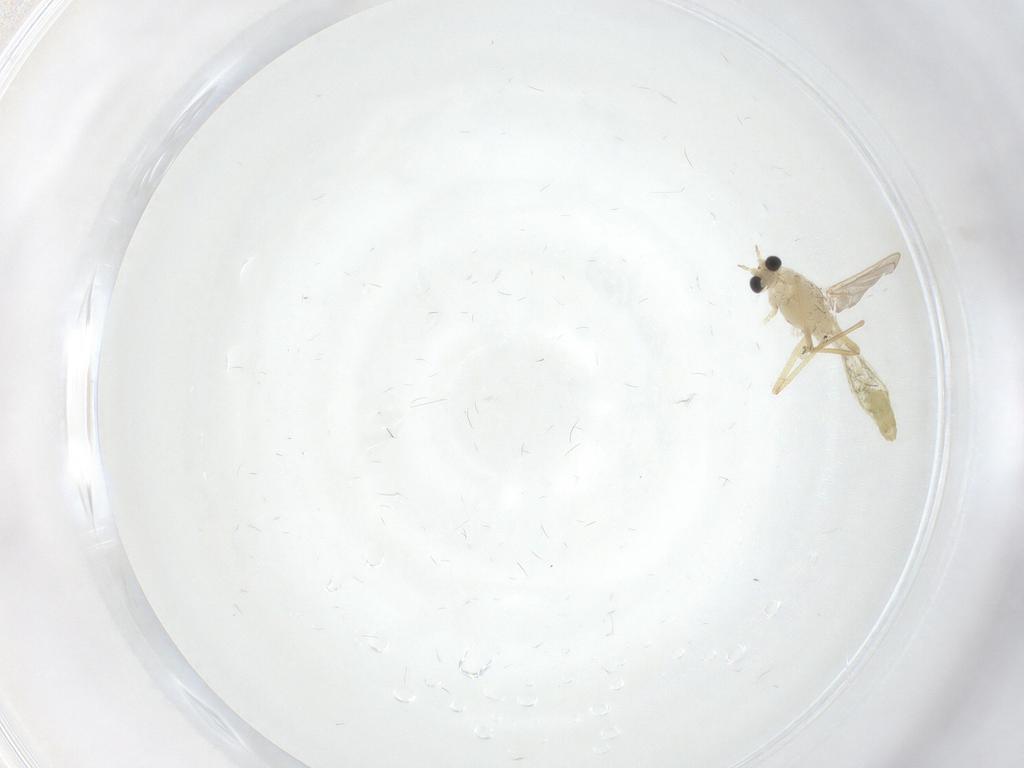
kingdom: Animalia
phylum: Arthropoda
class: Insecta
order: Diptera
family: Chironomidae
